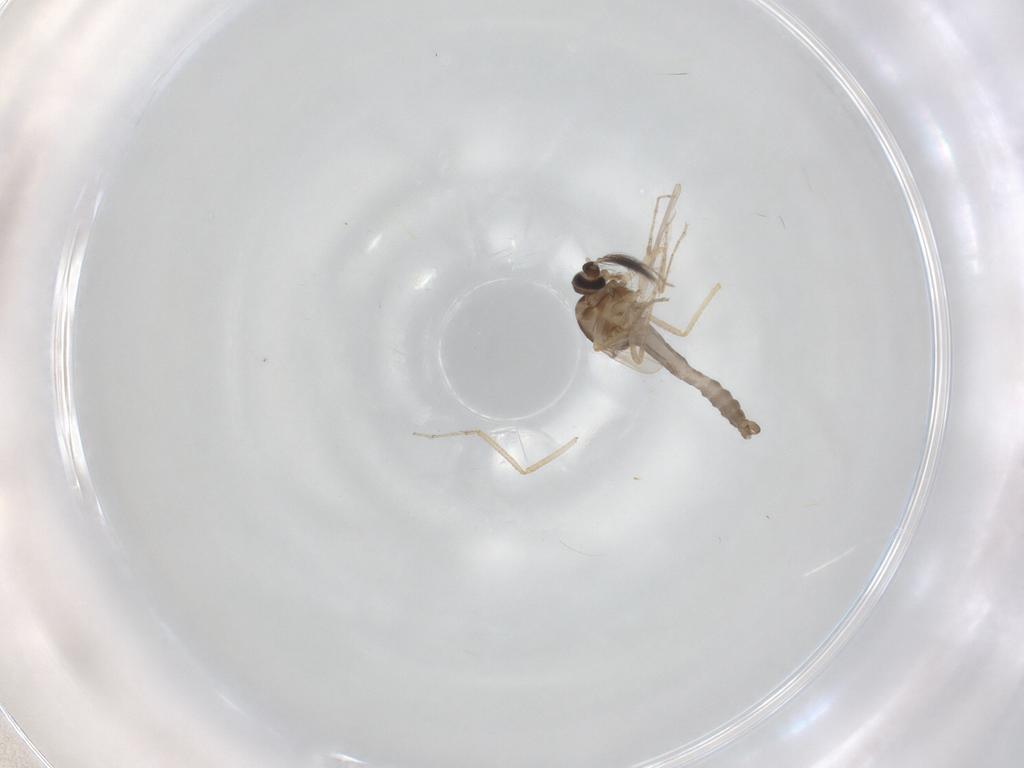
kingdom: Animalia
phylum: Arthropoda
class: Insecta
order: Diptera
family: Ceratopogonidae
